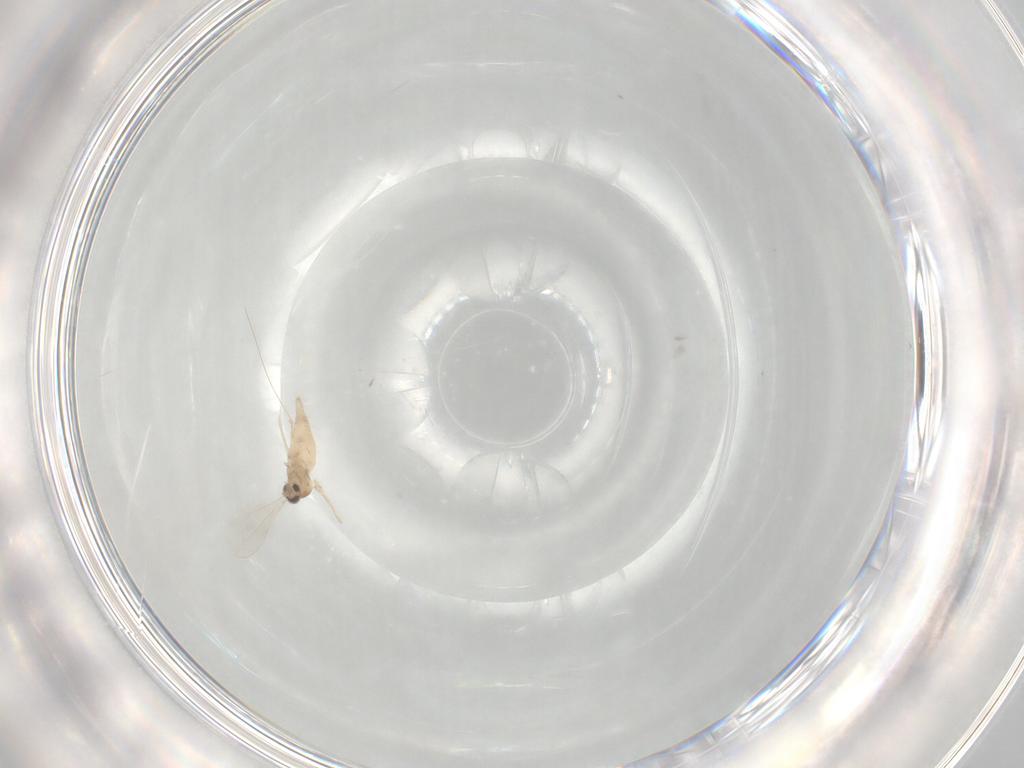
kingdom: Animalia
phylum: Arthropoda
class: Insecta
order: Diptera
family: Cecidomyiidae
